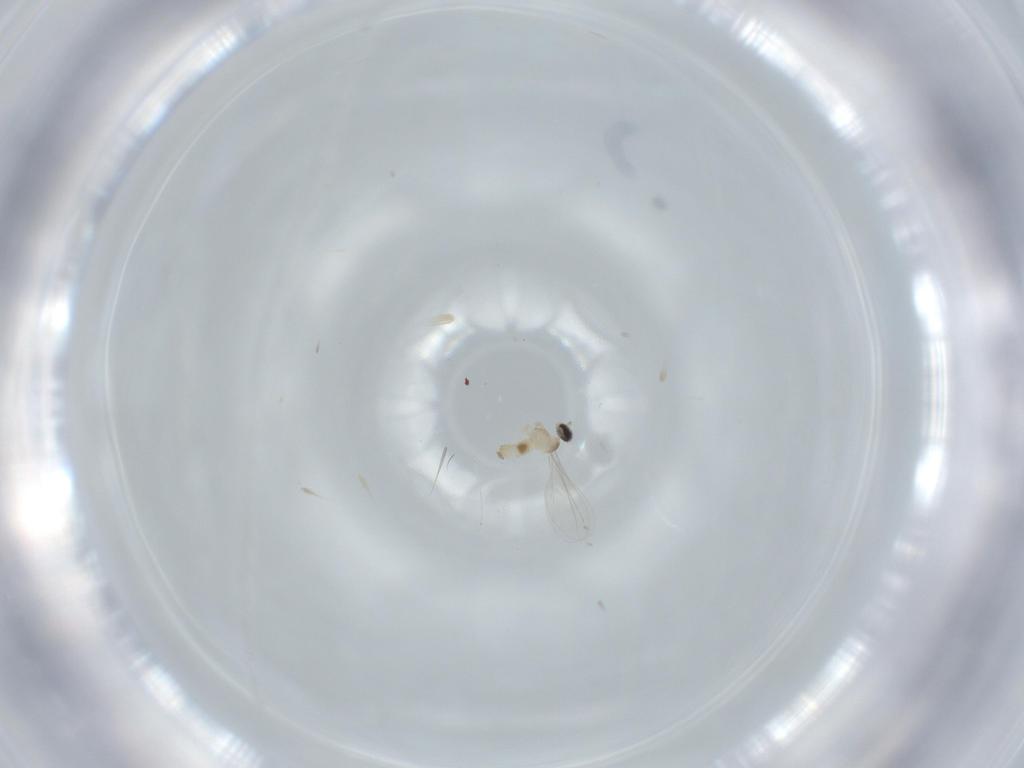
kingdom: Animalia
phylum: Arthropoda
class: Insecta
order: Diptera
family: Cecidomyiidae
